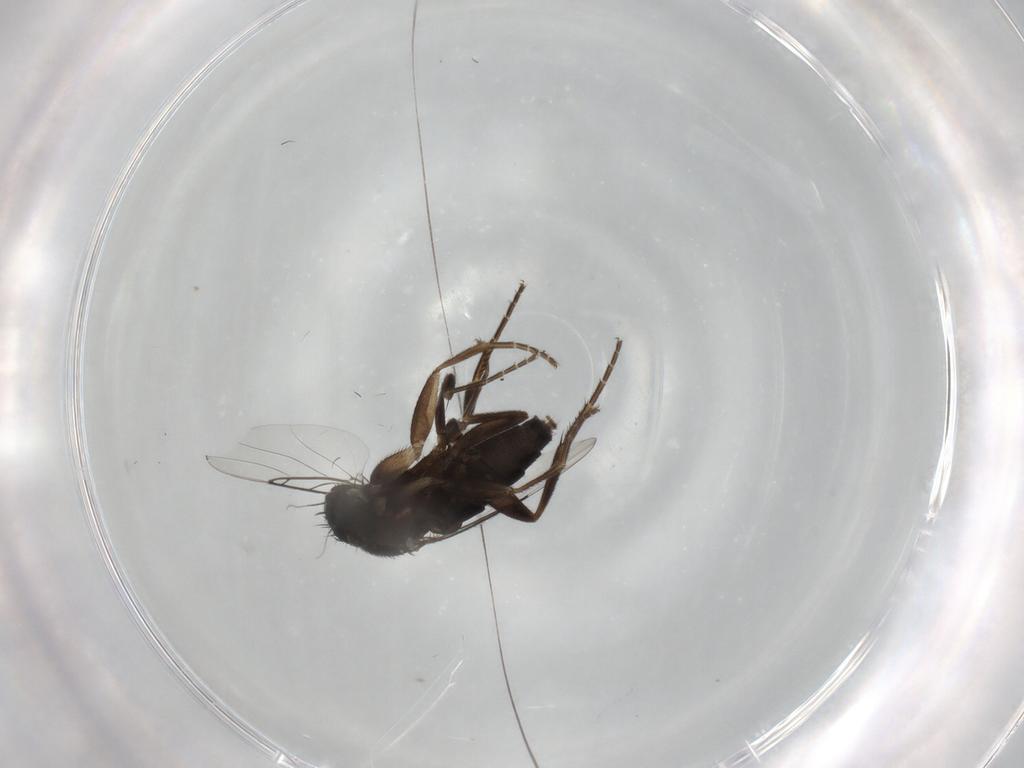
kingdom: Animalia
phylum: Arthropoda
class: Insecta
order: Diptera
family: Phoridae
